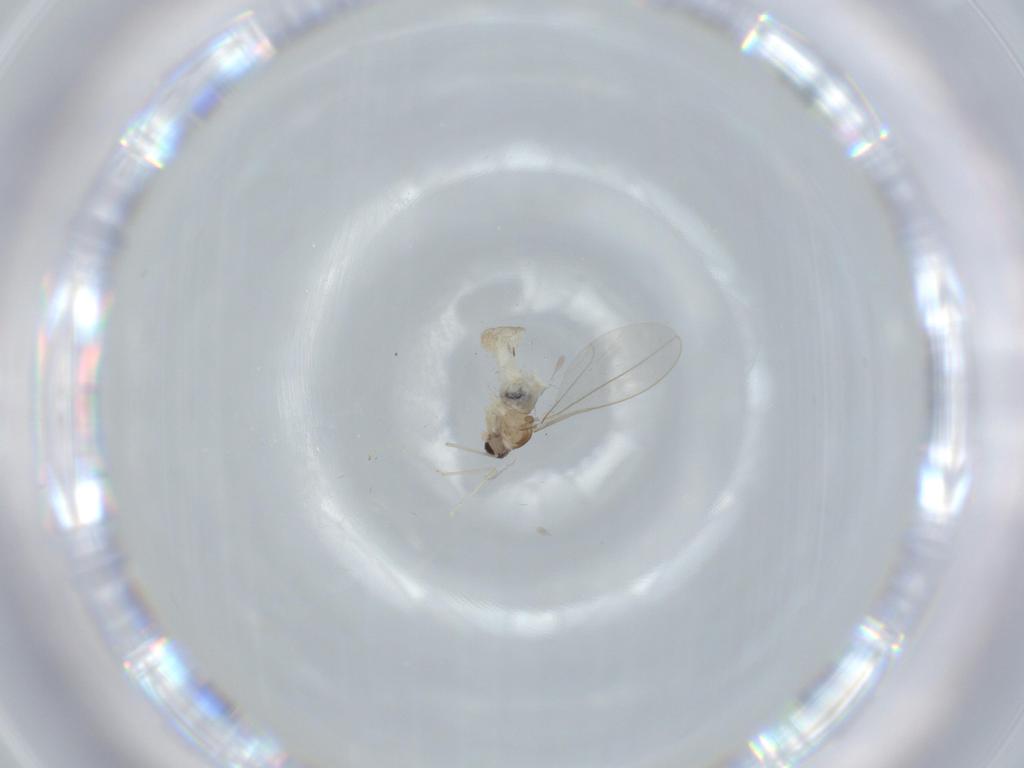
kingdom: Animalia
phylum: Arthropoda
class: Insecta
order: Diptera
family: Cecidomyiidae
